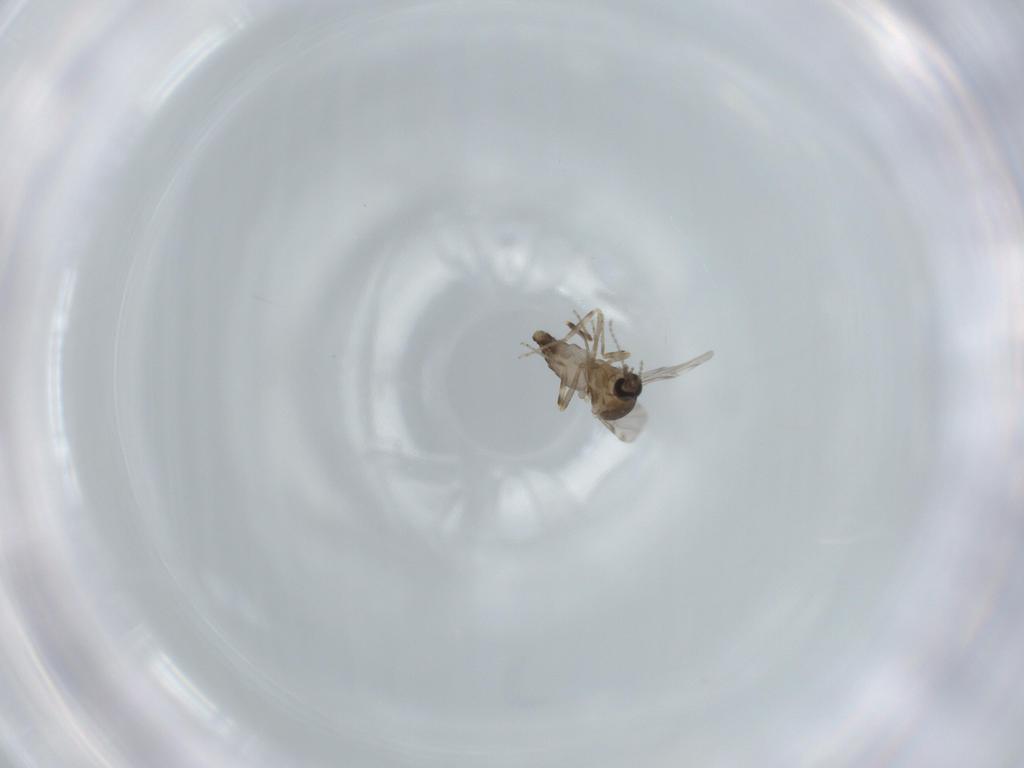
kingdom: Animalia
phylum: Arthropoda
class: Insecta
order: Diptera
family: Ceratopogonidae
